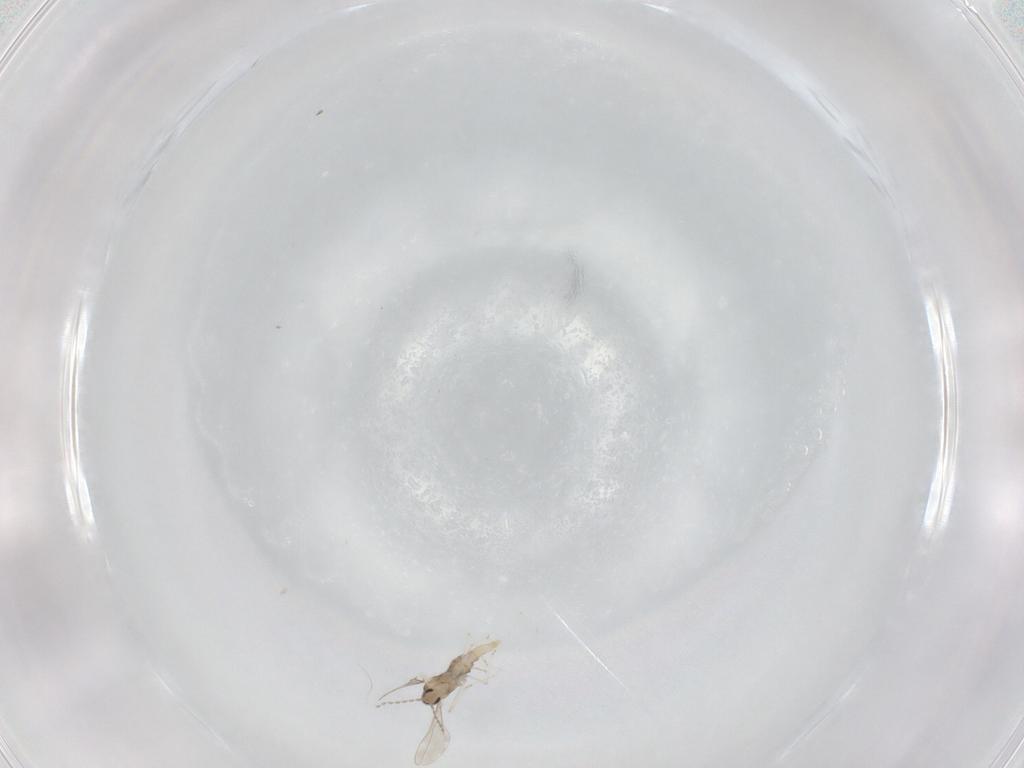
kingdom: Animalia
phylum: Arthropoda
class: Insecta
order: Diptera
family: Cecidomyiidae
